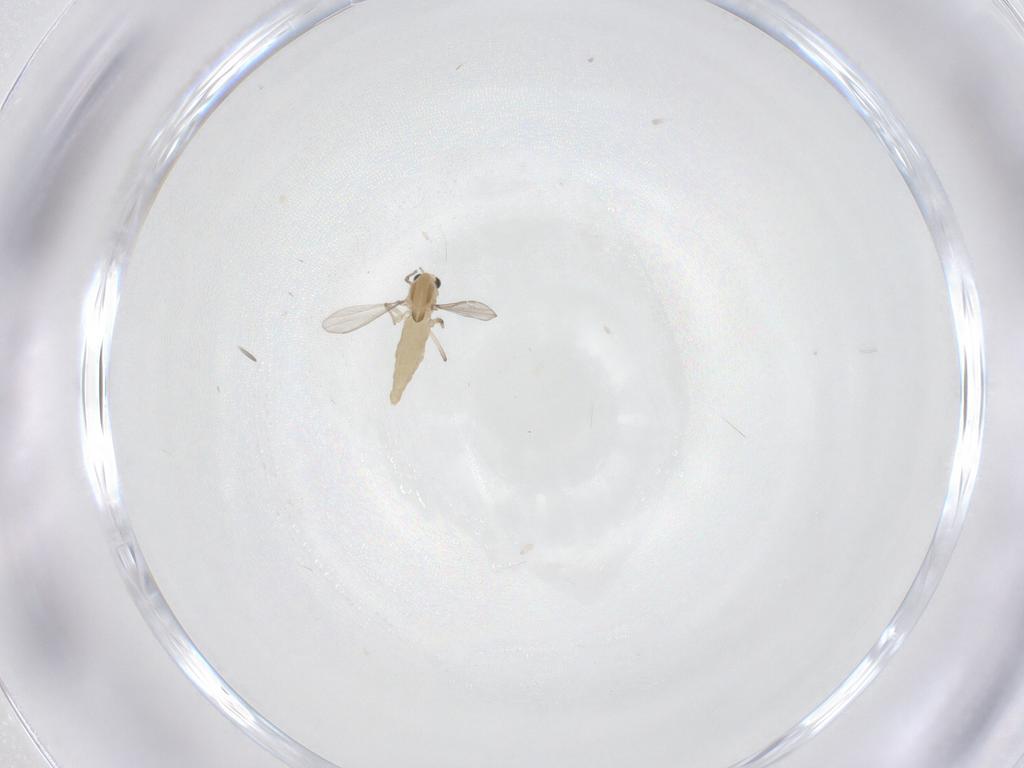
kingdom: Animalia
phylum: Arthropoda
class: Insecta
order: Diptera
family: Chironomidae
